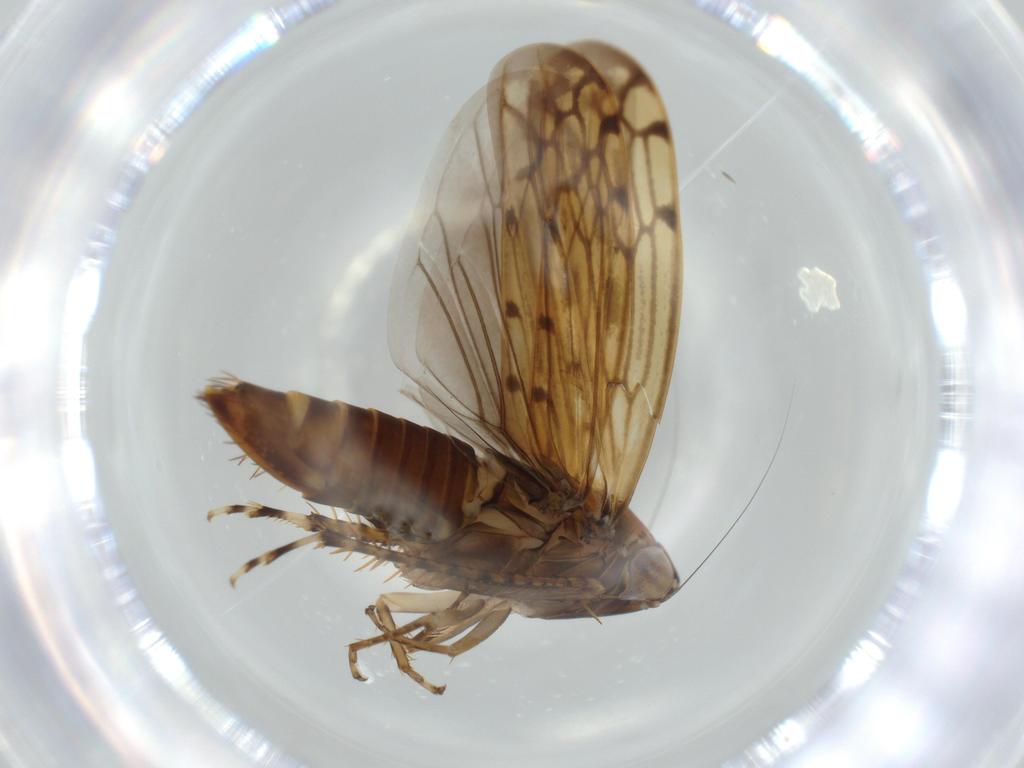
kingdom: Animalia
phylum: Arthropoda
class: Insecta
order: Hemiptera
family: Cicadellidae
